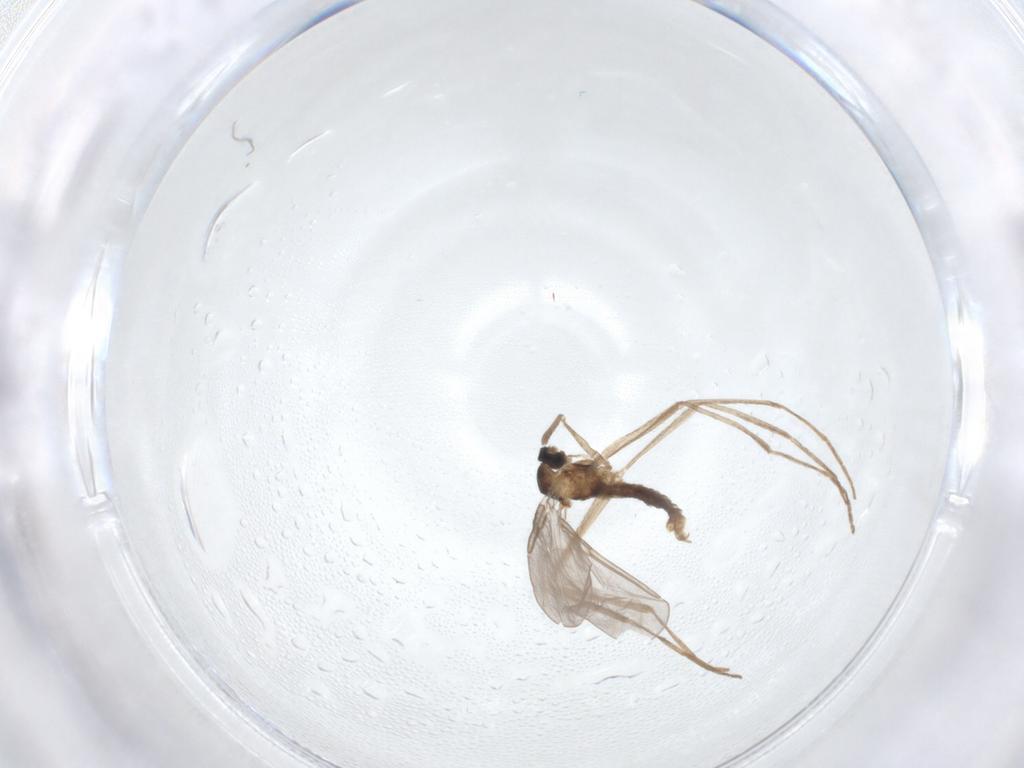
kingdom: Animalia
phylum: Arthropoda
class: Insecta
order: Diptera
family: Cecidomyiidae
